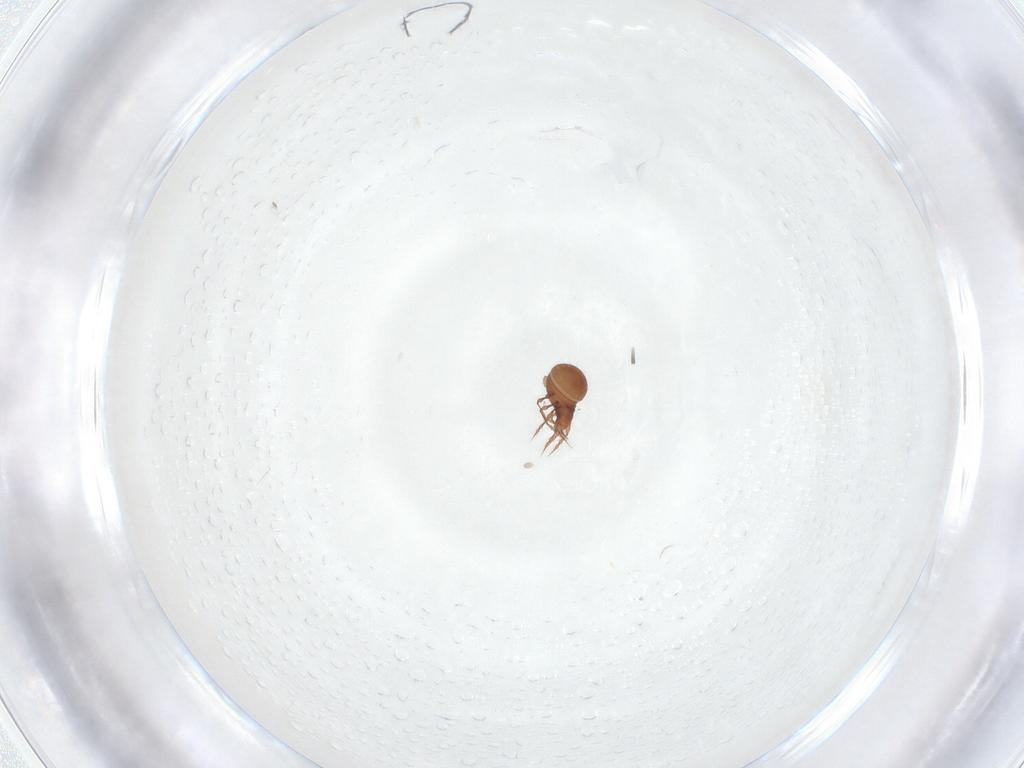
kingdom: Animalia
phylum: Arthropoda
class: Arachnida
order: Sarcoptiformes
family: Oppiidae
